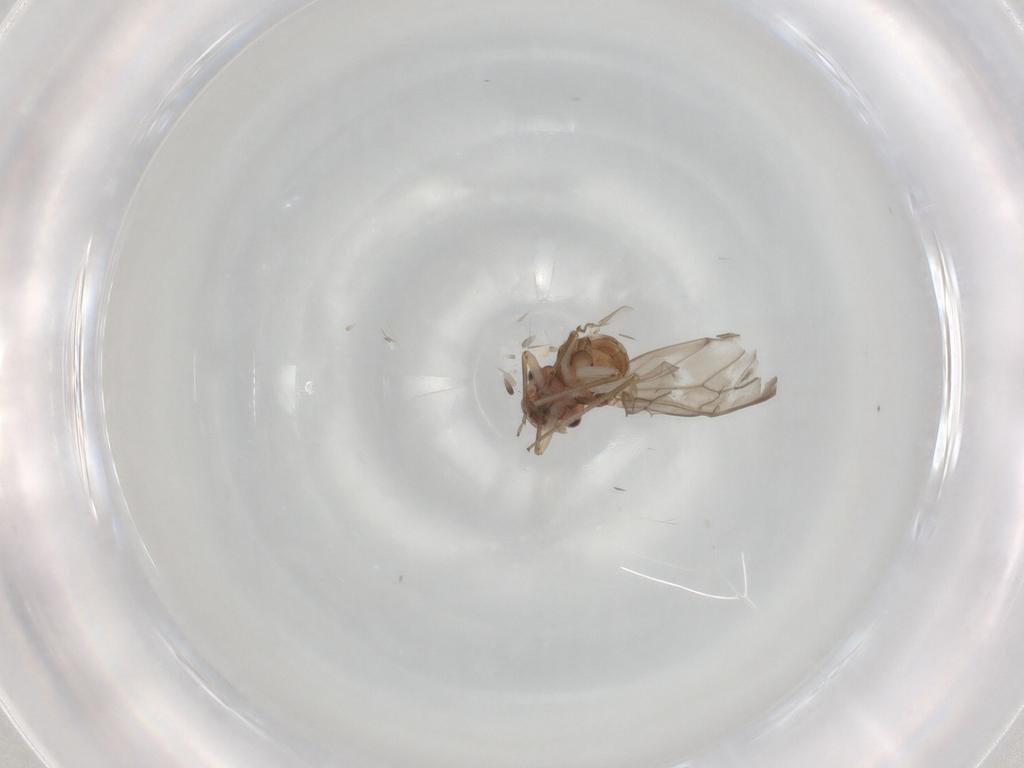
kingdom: Animalia
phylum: Arthropoda
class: Insecta
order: Psocodea
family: Peripsocidae
